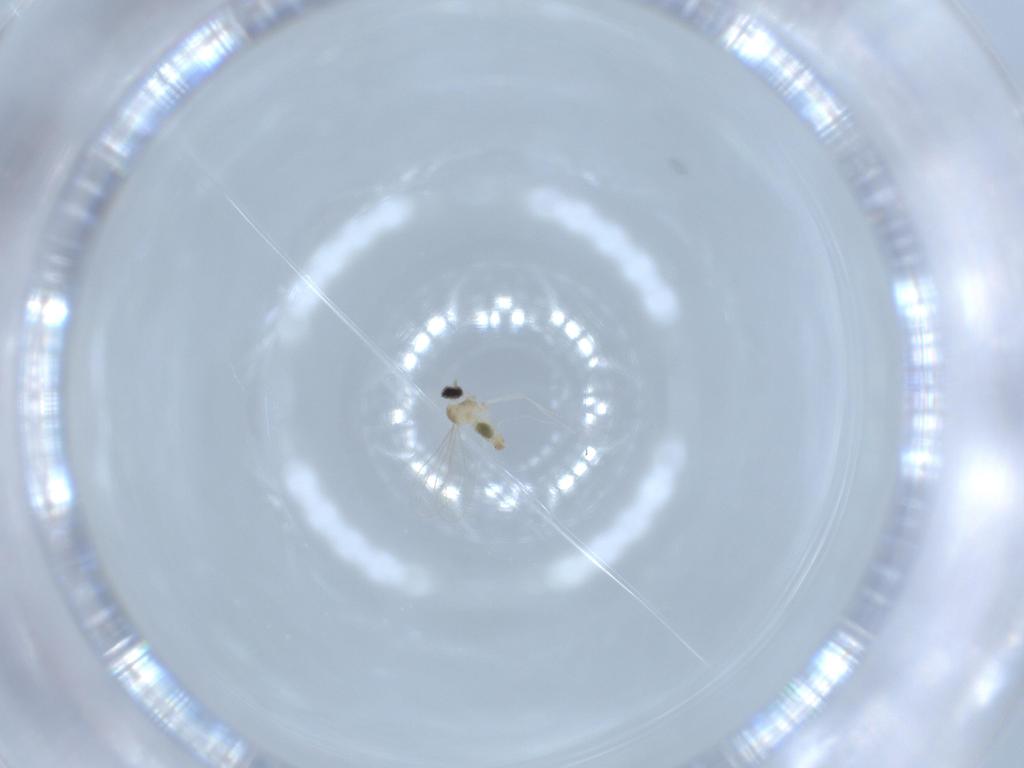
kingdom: Animalia
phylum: Arthropoda
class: Insecta
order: Diptera
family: Cecidomyiidae
